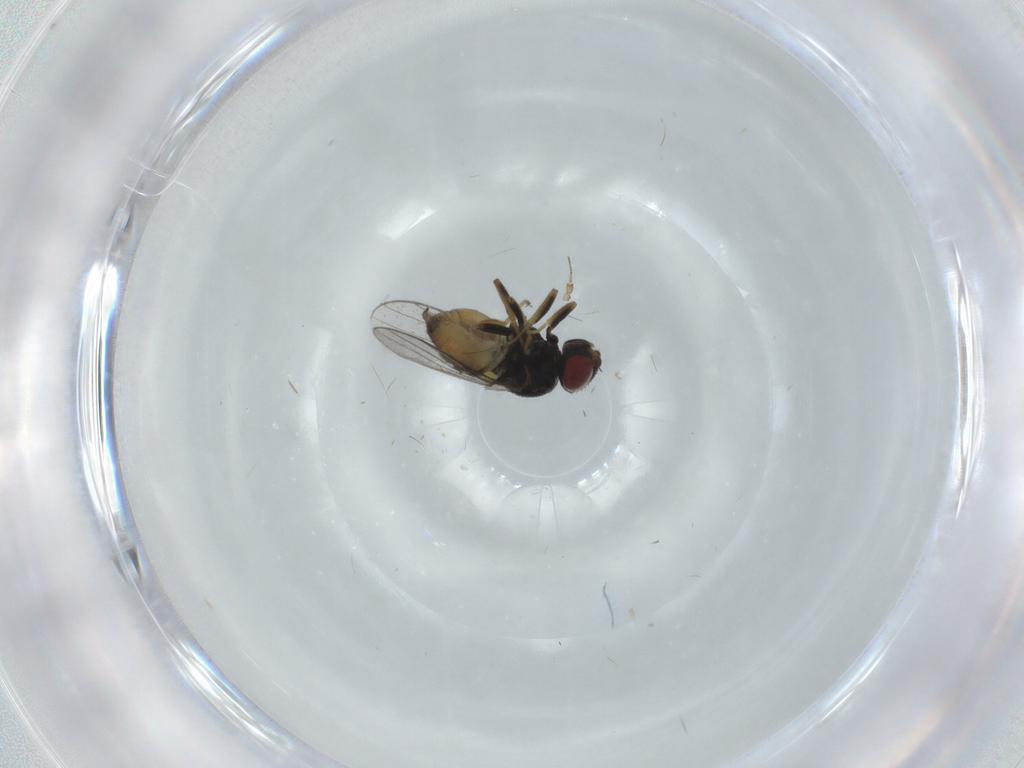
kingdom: Animalia
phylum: Arthropoda
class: Insecta
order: Diptera
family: Chloropidae
